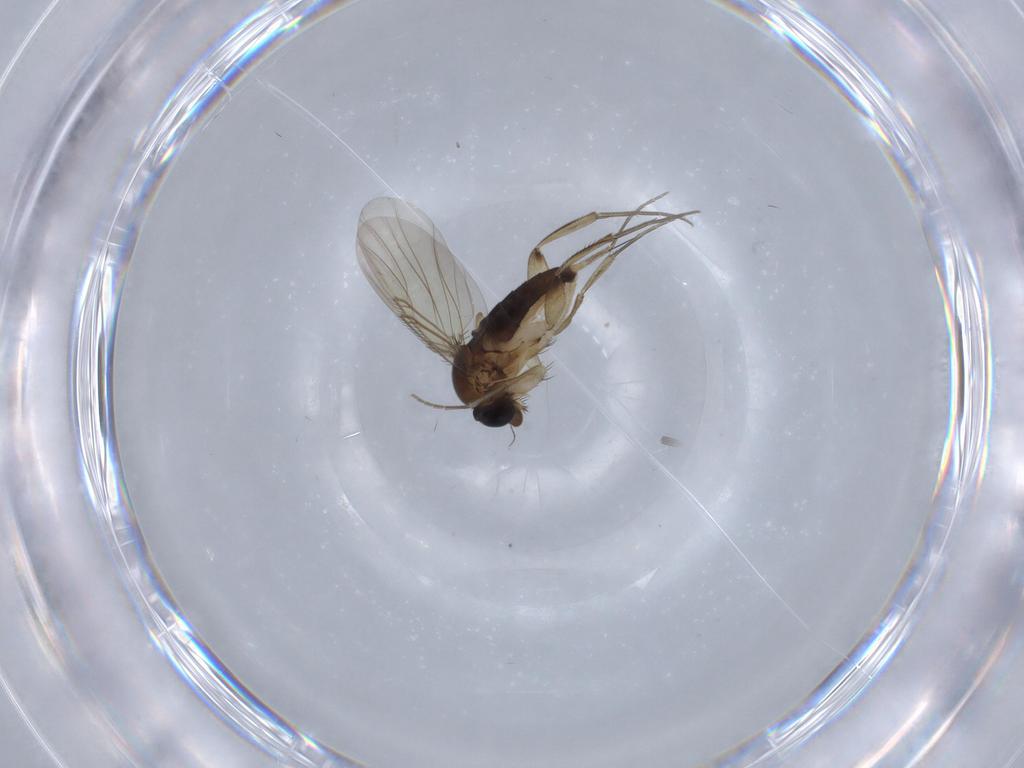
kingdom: Animalia
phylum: Arthropoda
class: Insecta
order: Diptera
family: Phoridae
